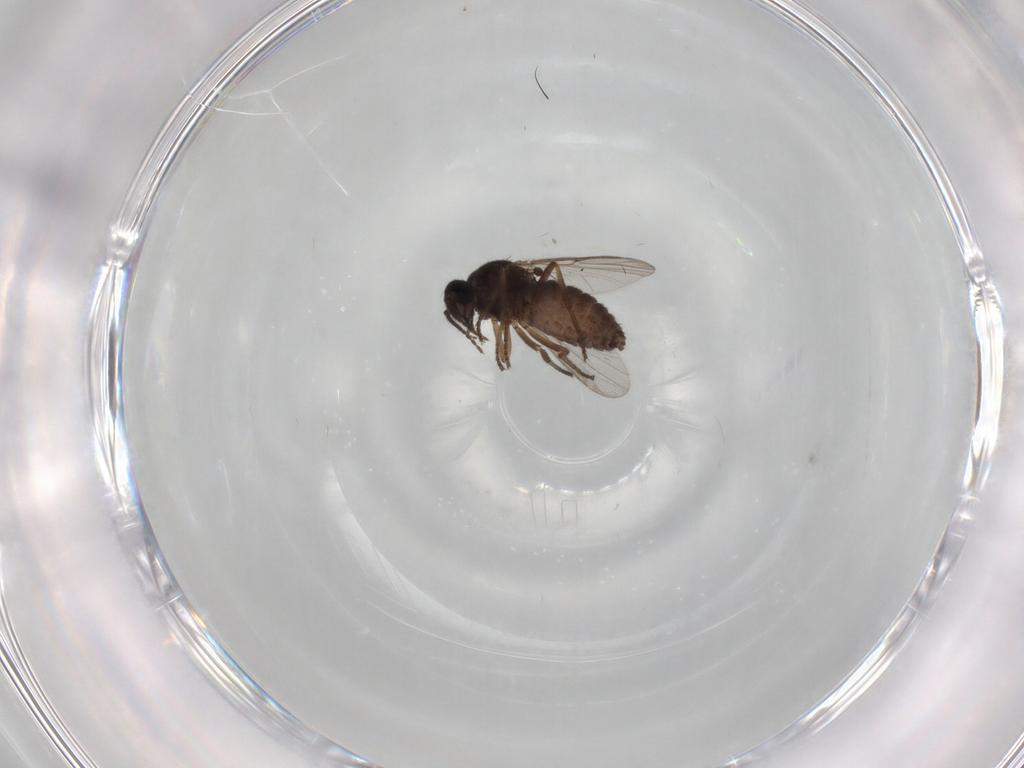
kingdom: Animalia
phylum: Arthropoda
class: Insecta
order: Diptera
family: Ceratopogonidae
